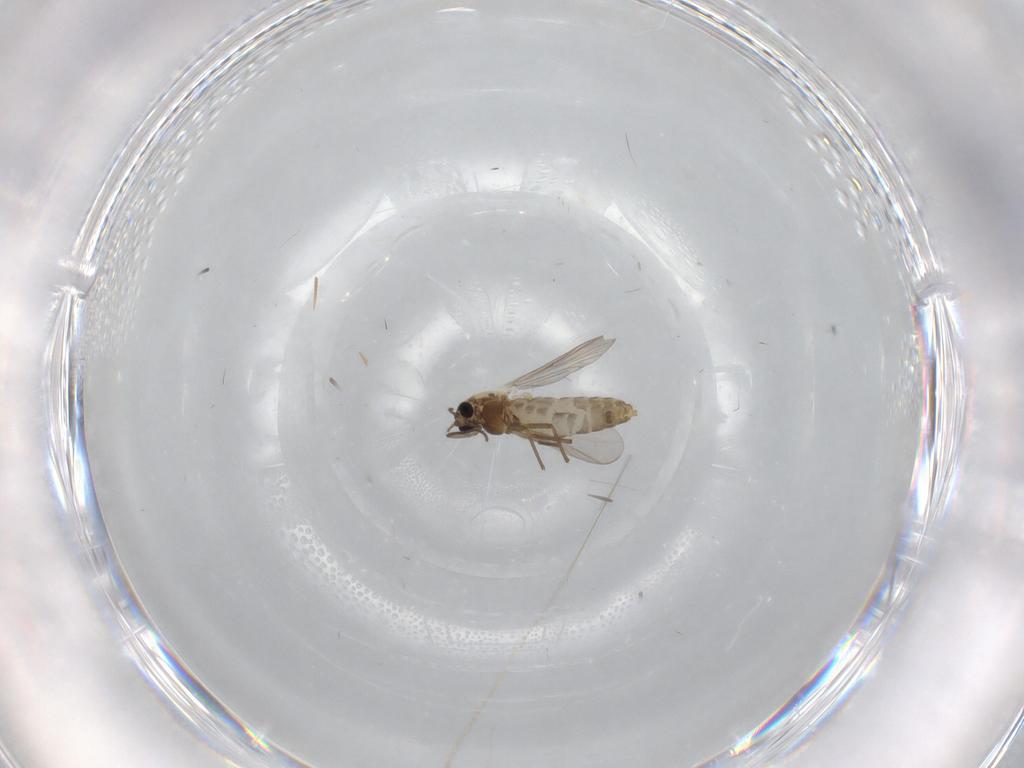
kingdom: Animalia
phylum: Arthropoda
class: Insecta
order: Diptera
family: Chironomidae
